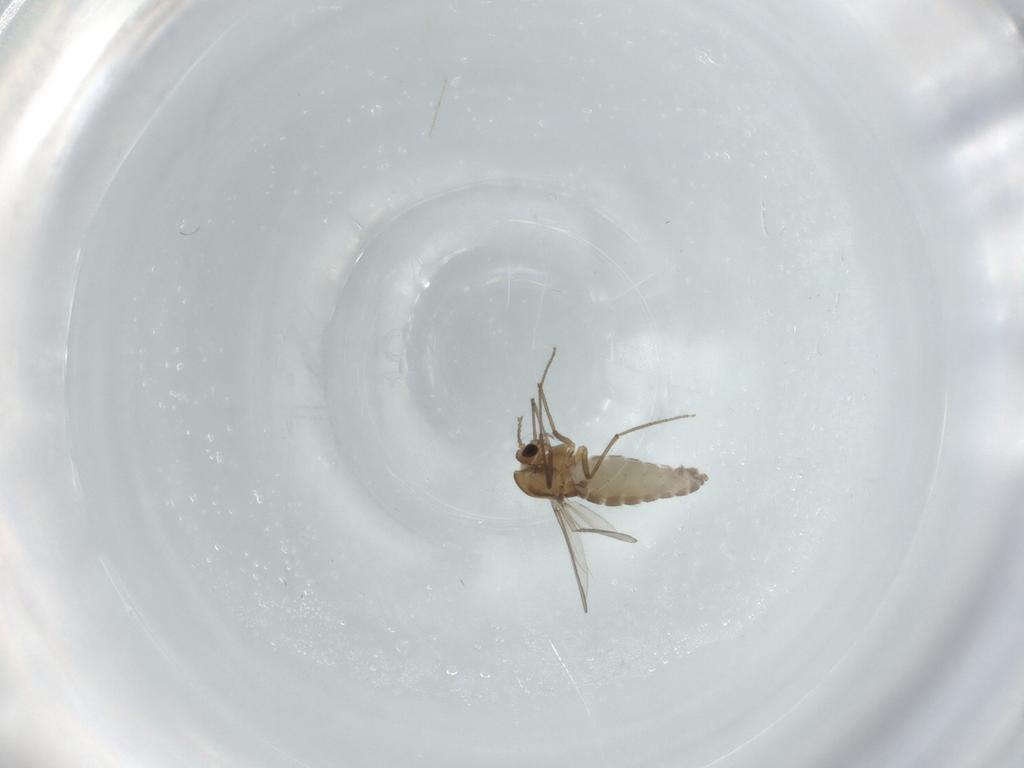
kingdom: Animalia
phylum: Arthropoda
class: Insecta
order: Diptera
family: Chironomidae
